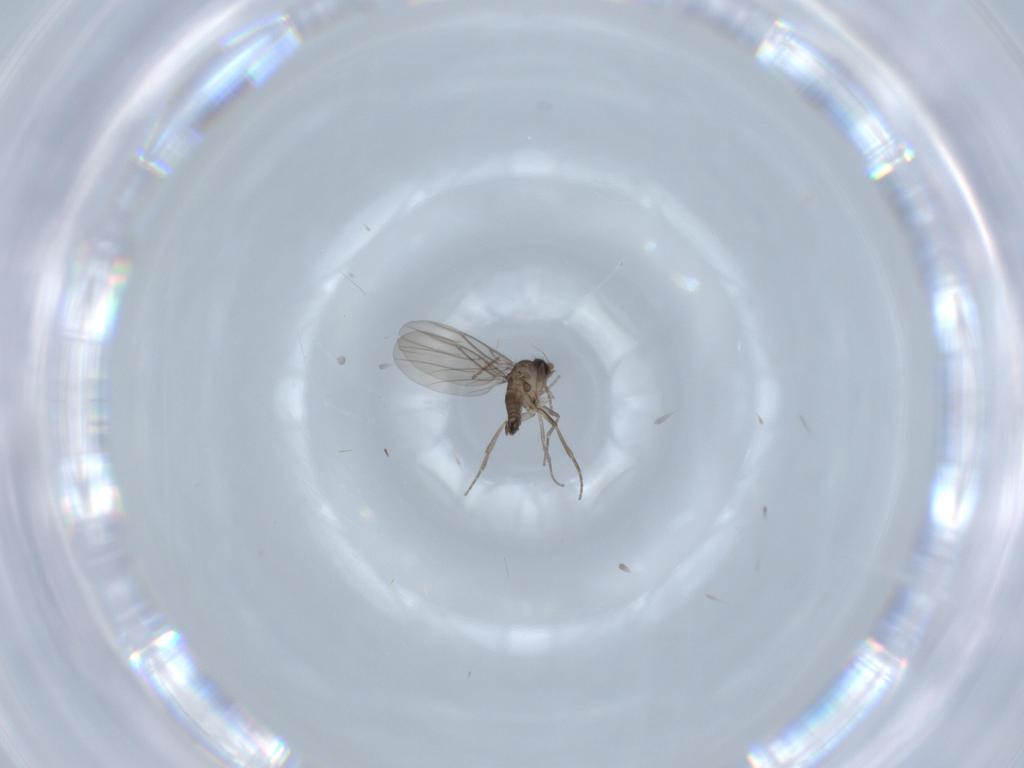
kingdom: Animalia
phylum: Arthropoda
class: Insecta
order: Diptera
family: Phoridae
